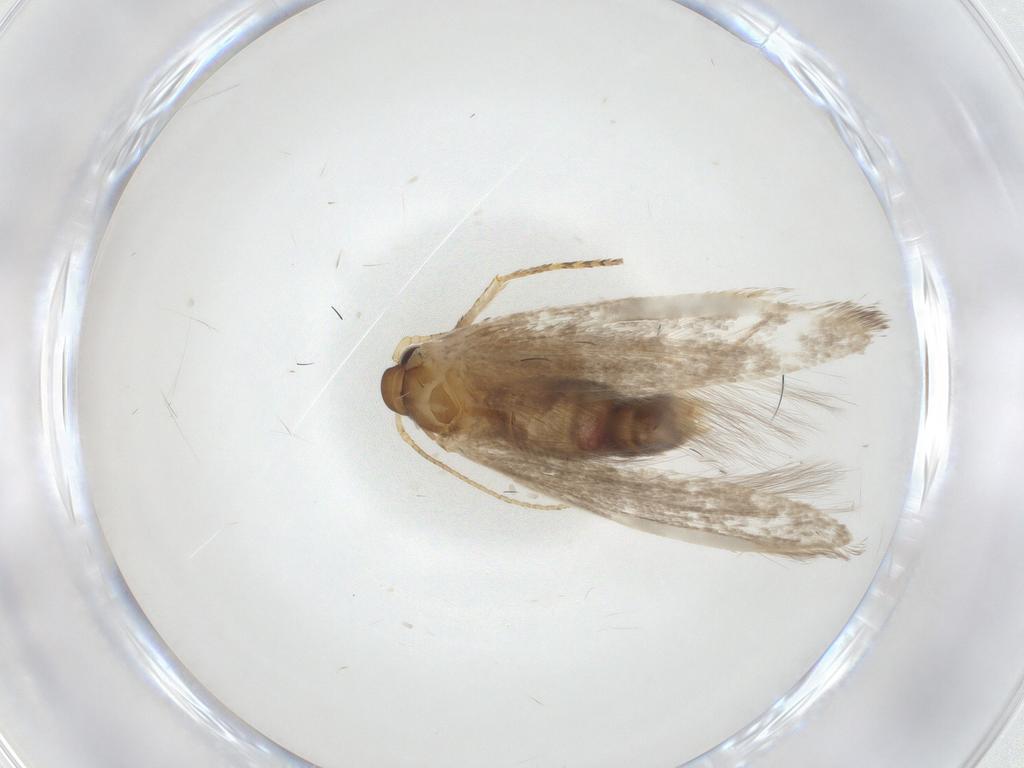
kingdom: Animalia
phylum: Arthropoda
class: Insecta
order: Lepidoptera
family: Coleophoridae
